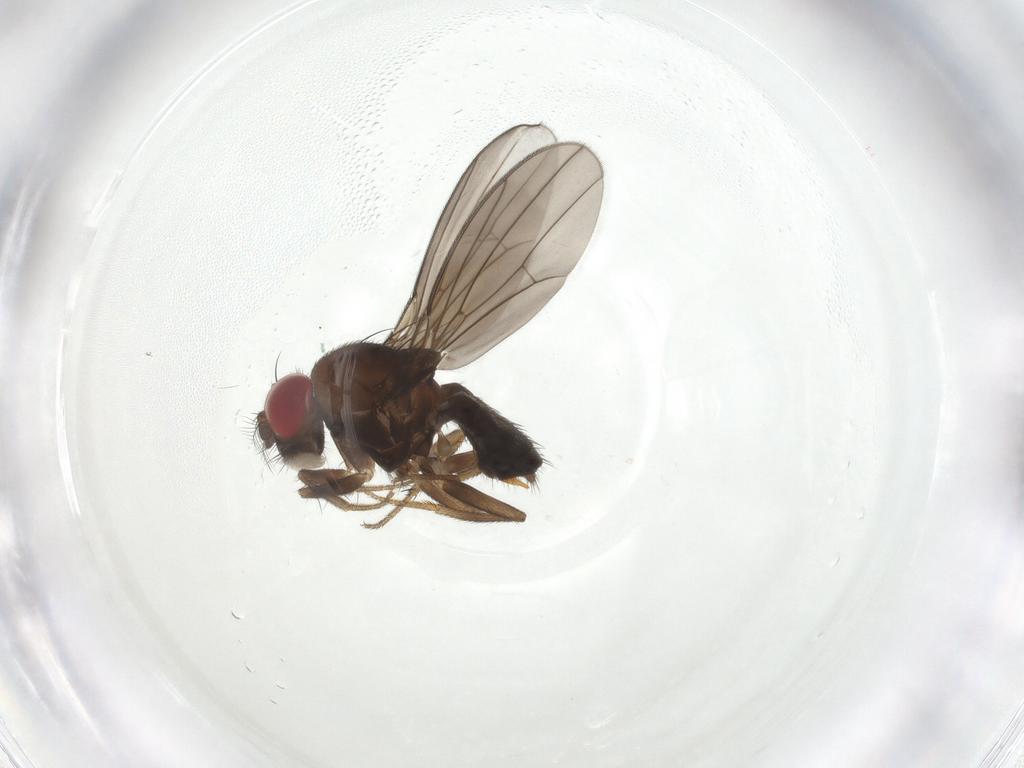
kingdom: Animalia
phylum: Arthropoda
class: Insecta
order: Diptera
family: Drosophilidae
